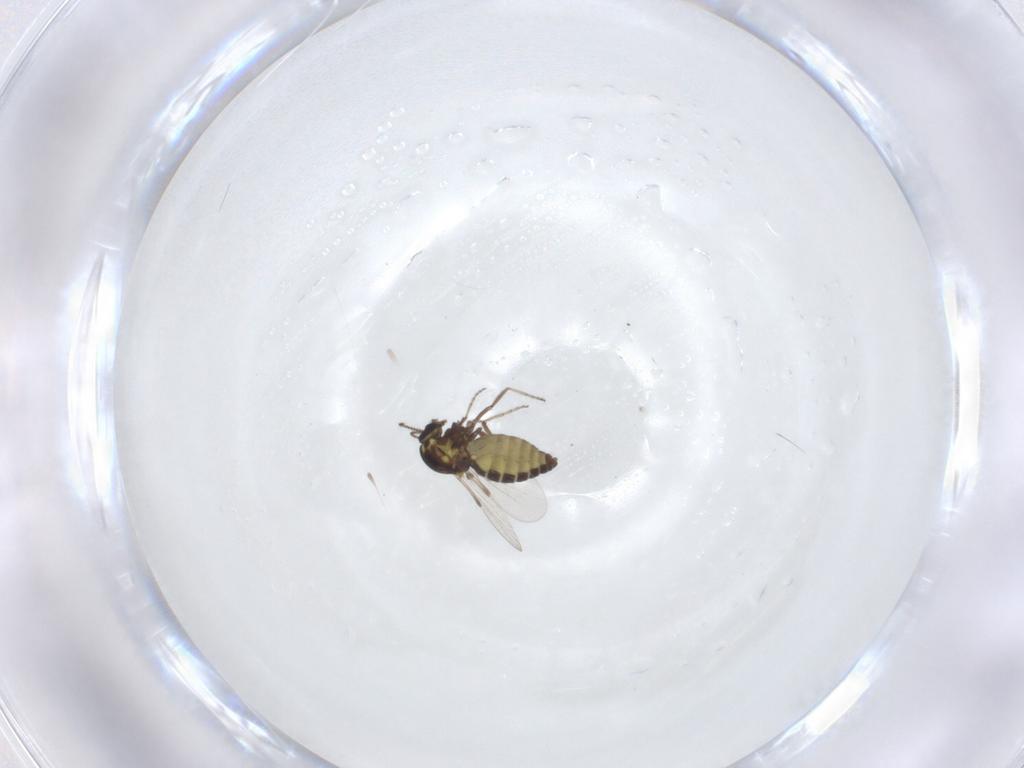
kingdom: Animalia
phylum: Arthropoda
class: Insecta
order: Diptera
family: Ceratopogonidae
